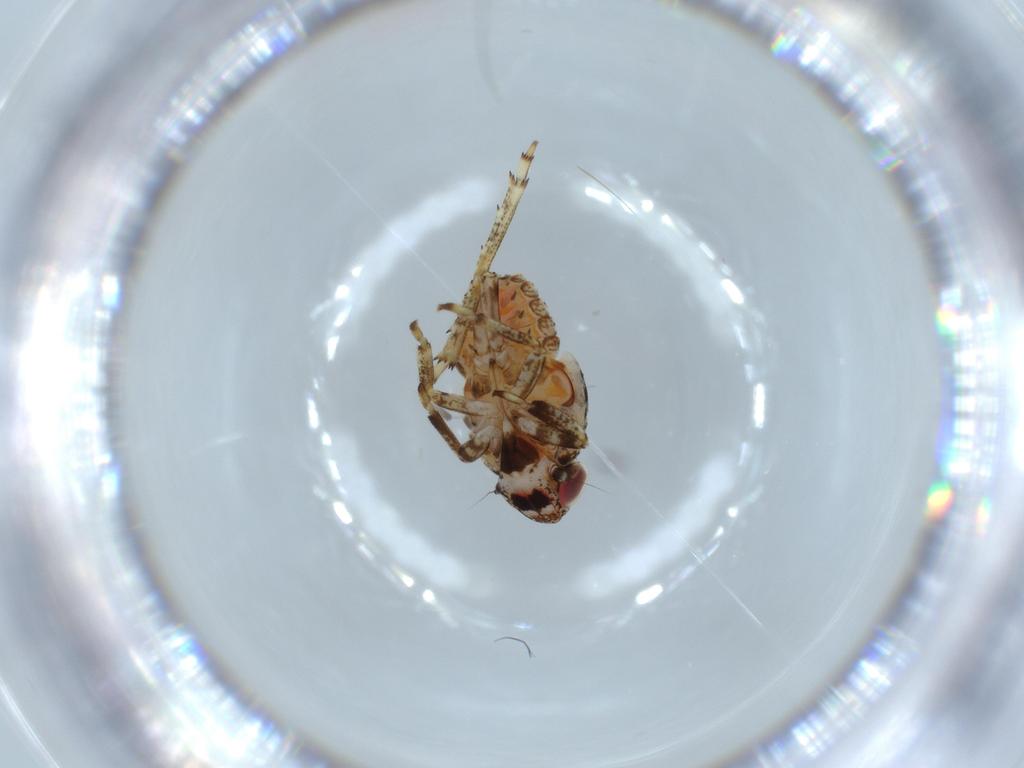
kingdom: Animalia
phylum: Arthropoda
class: Insecta
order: Hemiptera
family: Issidae
